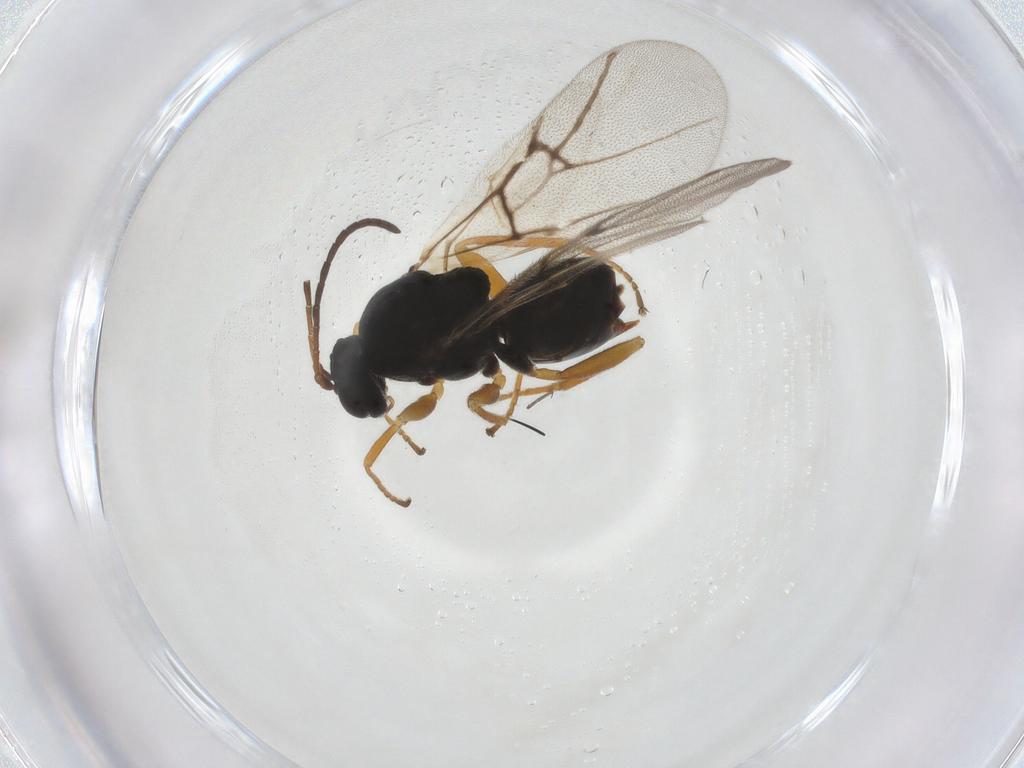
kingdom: Animalia
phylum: Arthropoda
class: Insecta
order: Hymenoptera
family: Cynipidae
